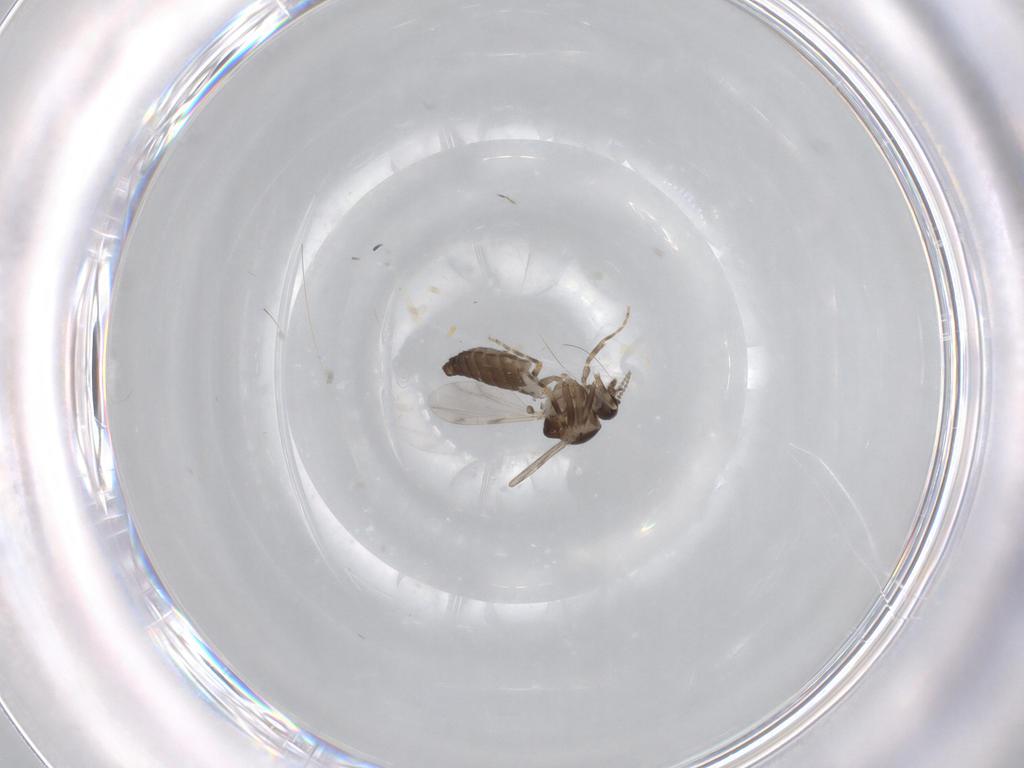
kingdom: Animalia
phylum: Arthropoda
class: Insecta
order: Diptera
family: Ceratopogonidae
